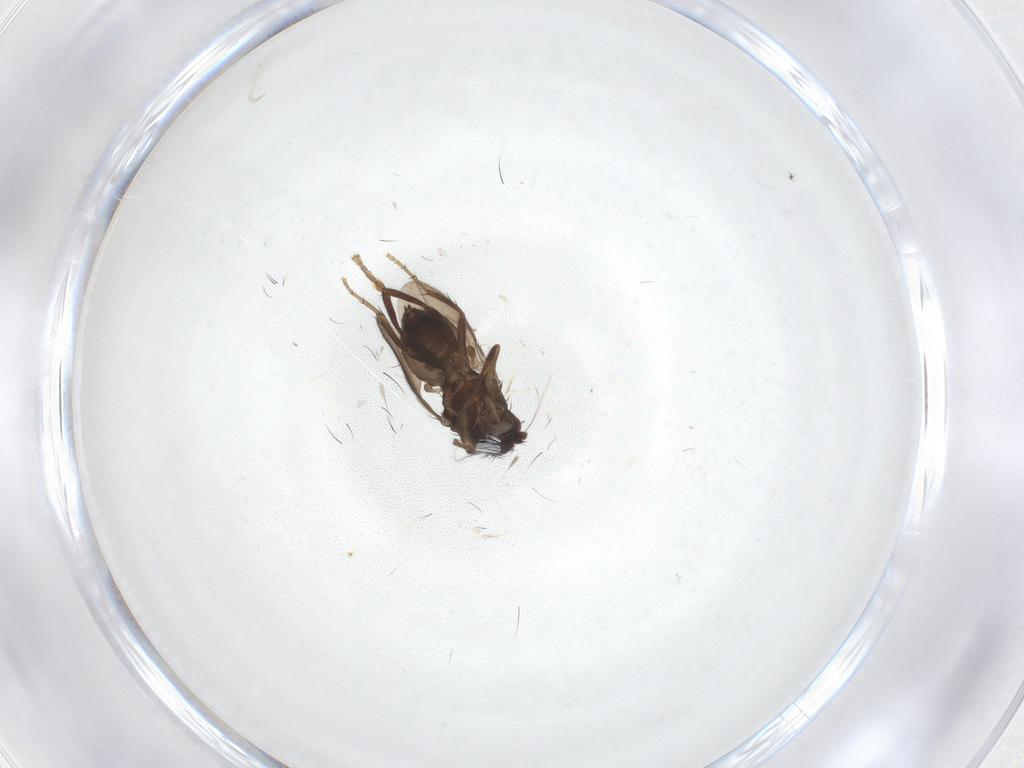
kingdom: Animalia
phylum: Arthropoda
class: Insecta
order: Diptera
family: Sphaeroceridae
